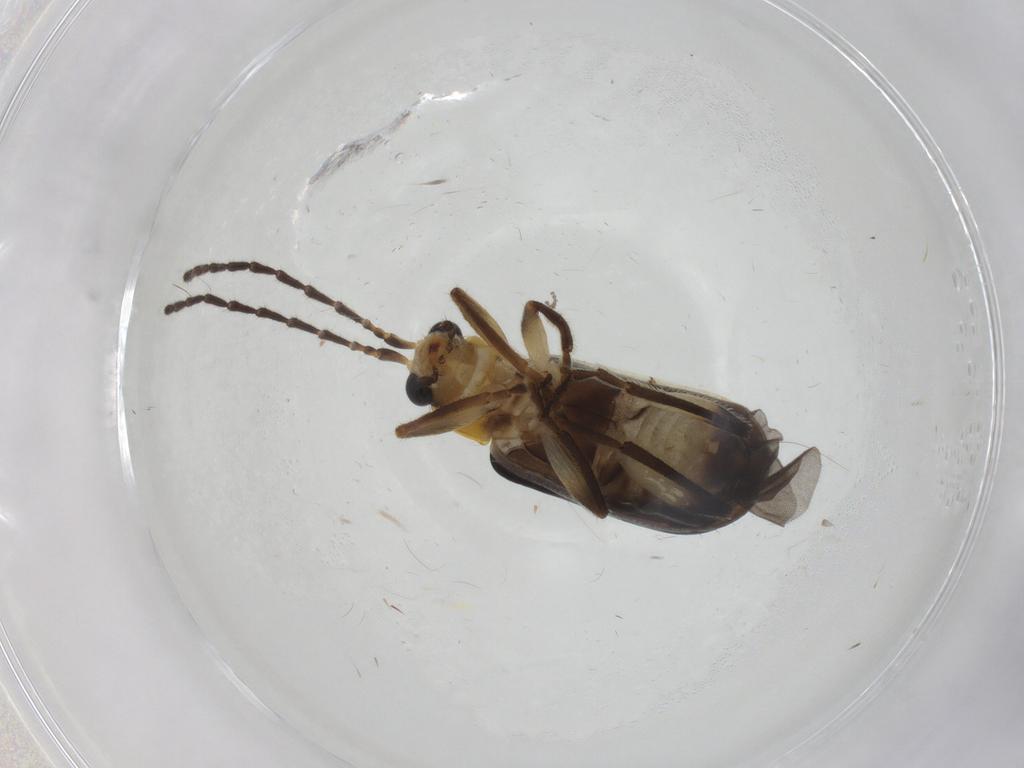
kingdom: Animalia
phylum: Arthropoda
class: Insecta
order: Coleoptera
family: Chrysomelidae
